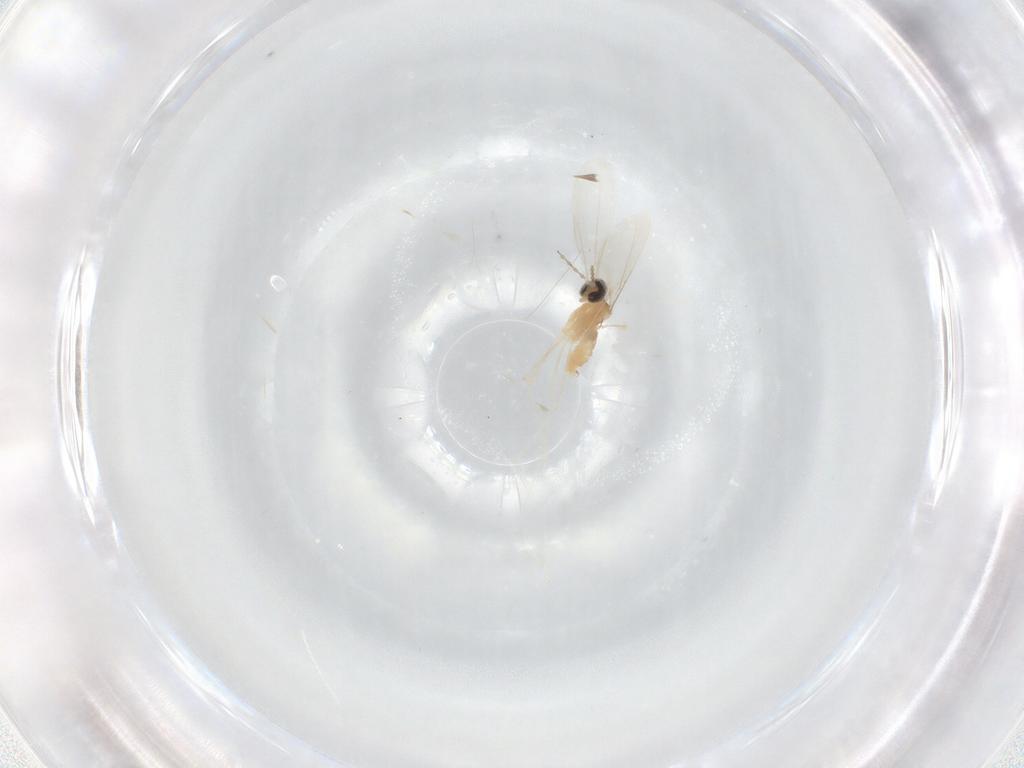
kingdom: Animalia
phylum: Arthropoda
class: Insecta
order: Diptera
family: Cecidomyiidae
